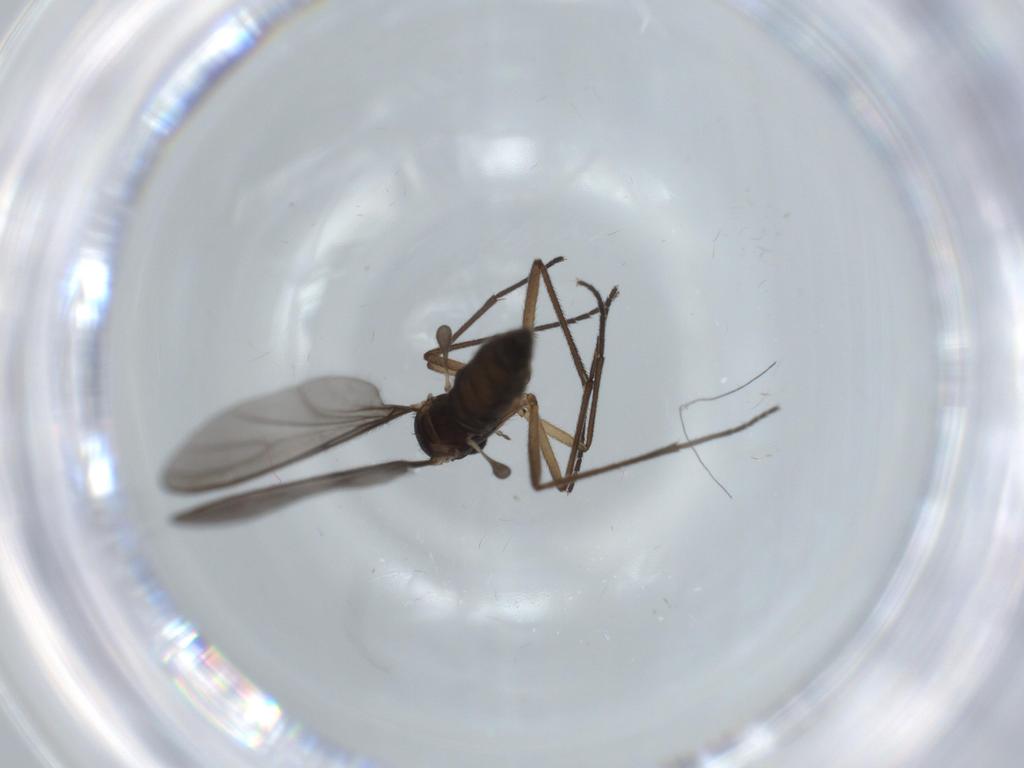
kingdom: Animalia
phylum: Arthropoda
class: Insecta
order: Diptera
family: Sciaridae
